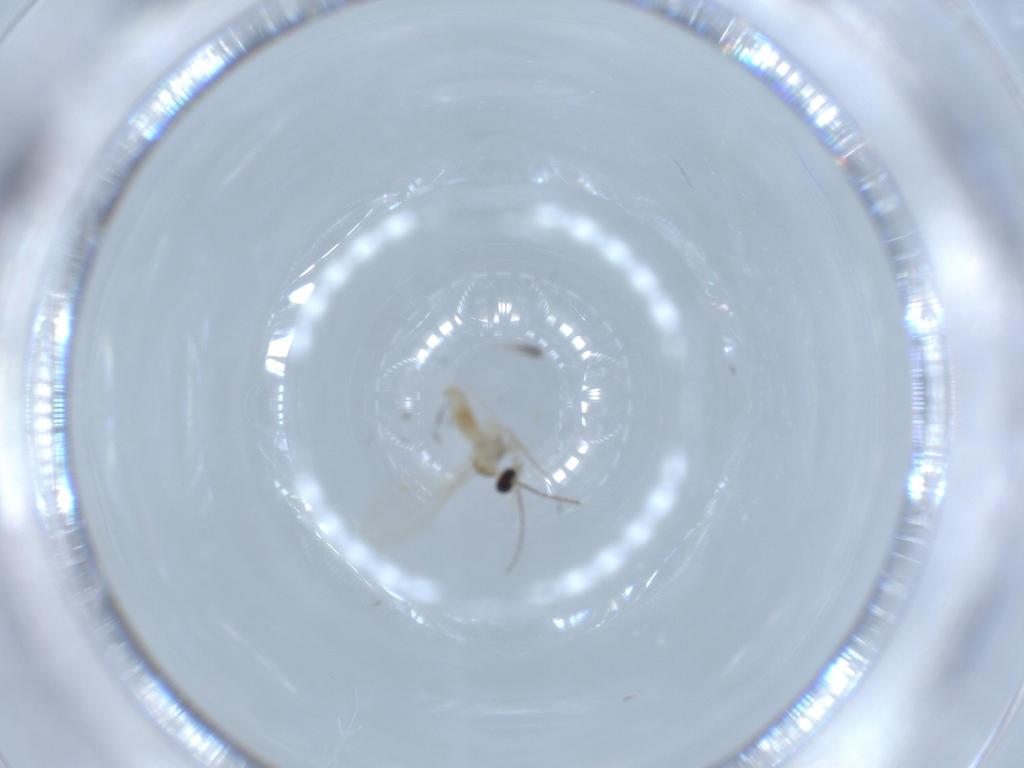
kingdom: Animalia
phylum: Arthropoda
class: Insecta
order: Diptera
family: Cecidomyiidae
